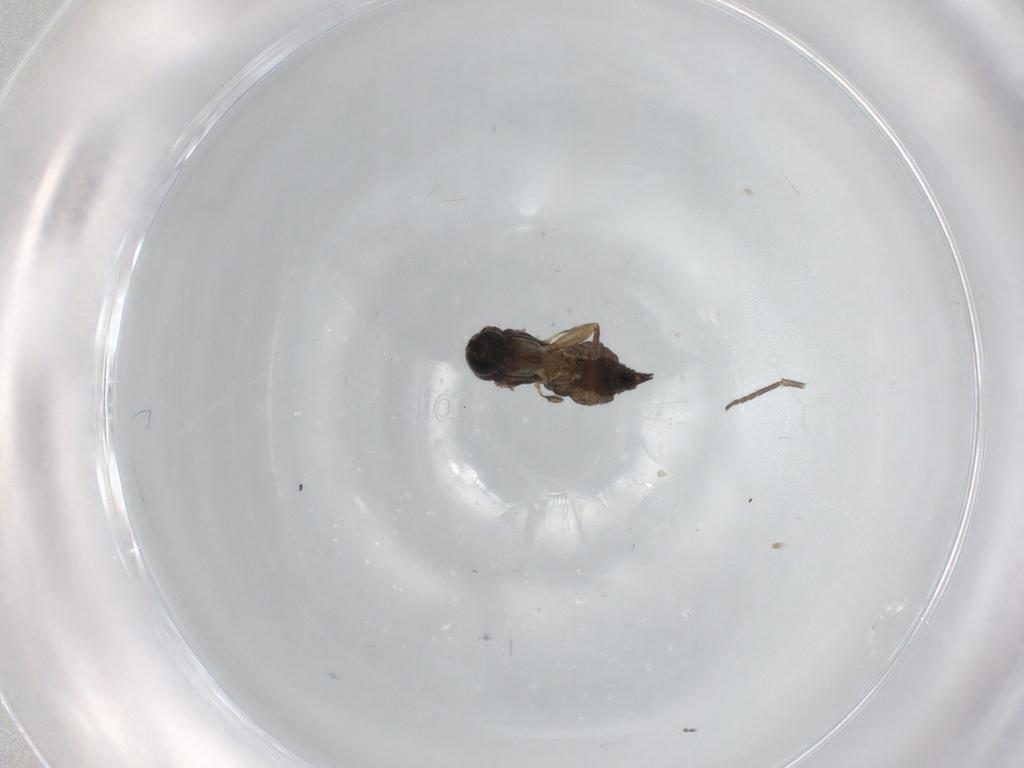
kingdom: Animalia
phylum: Arthropoda
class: Insecta
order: Diptera
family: Sciaridae
